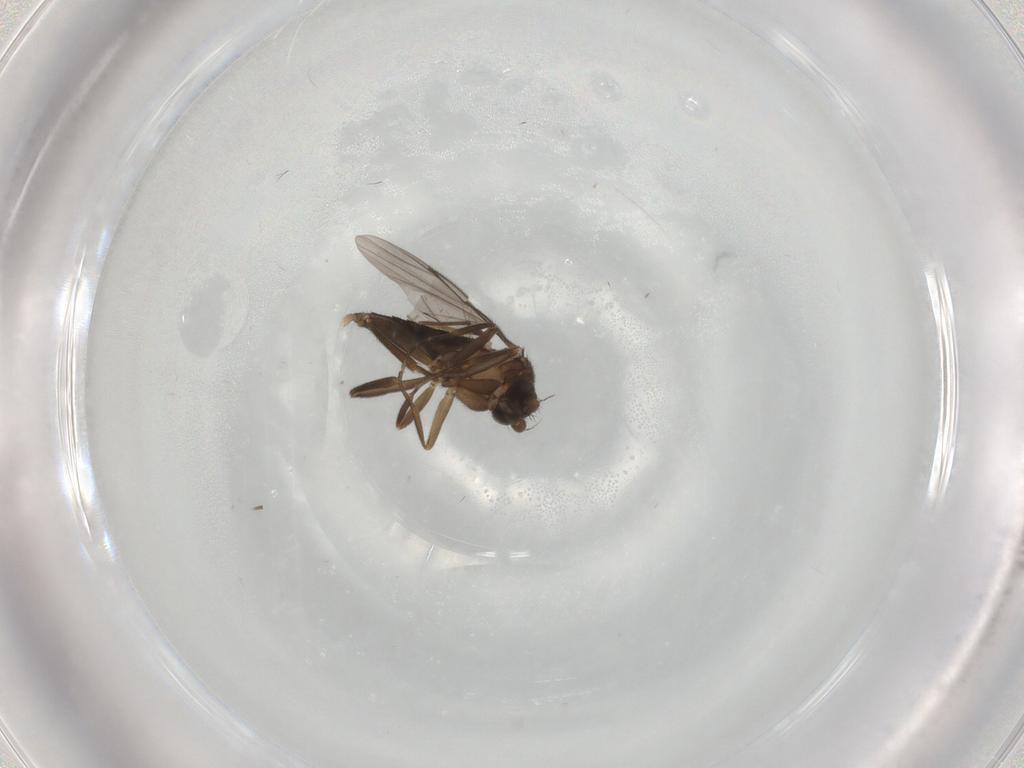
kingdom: Animalia
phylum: Arthropoda
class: Insecta
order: Diptera
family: Chironomidae
